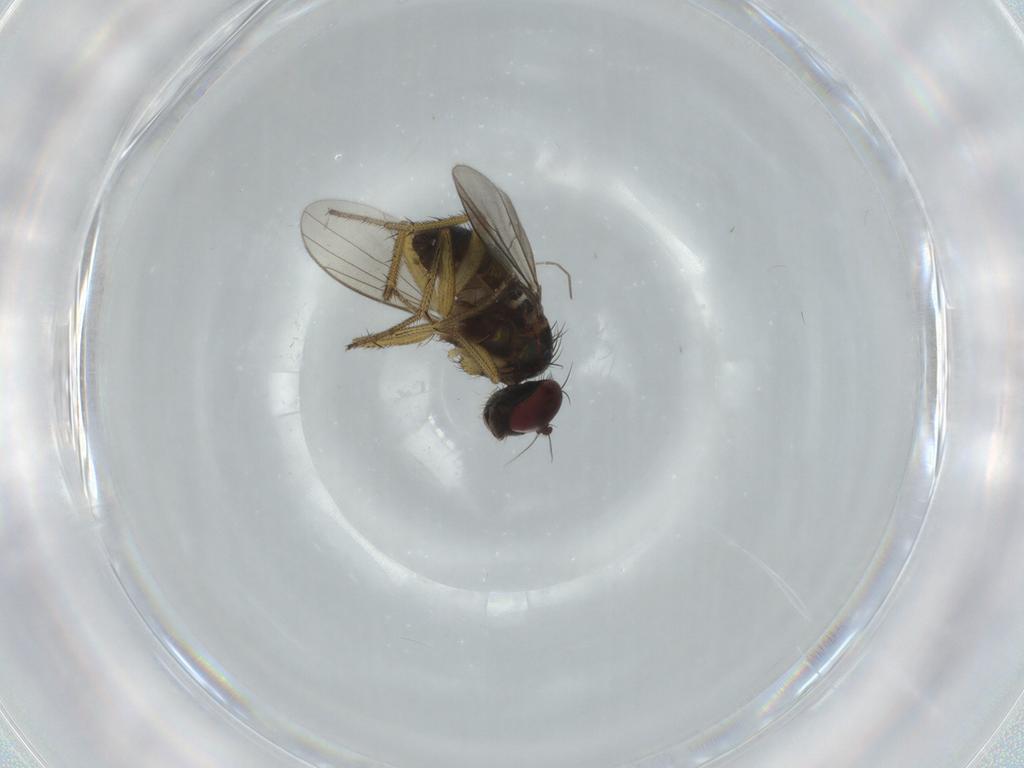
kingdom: Animalia
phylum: Arthropoda
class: Insecta
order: Diptera
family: Dolichopodidae
